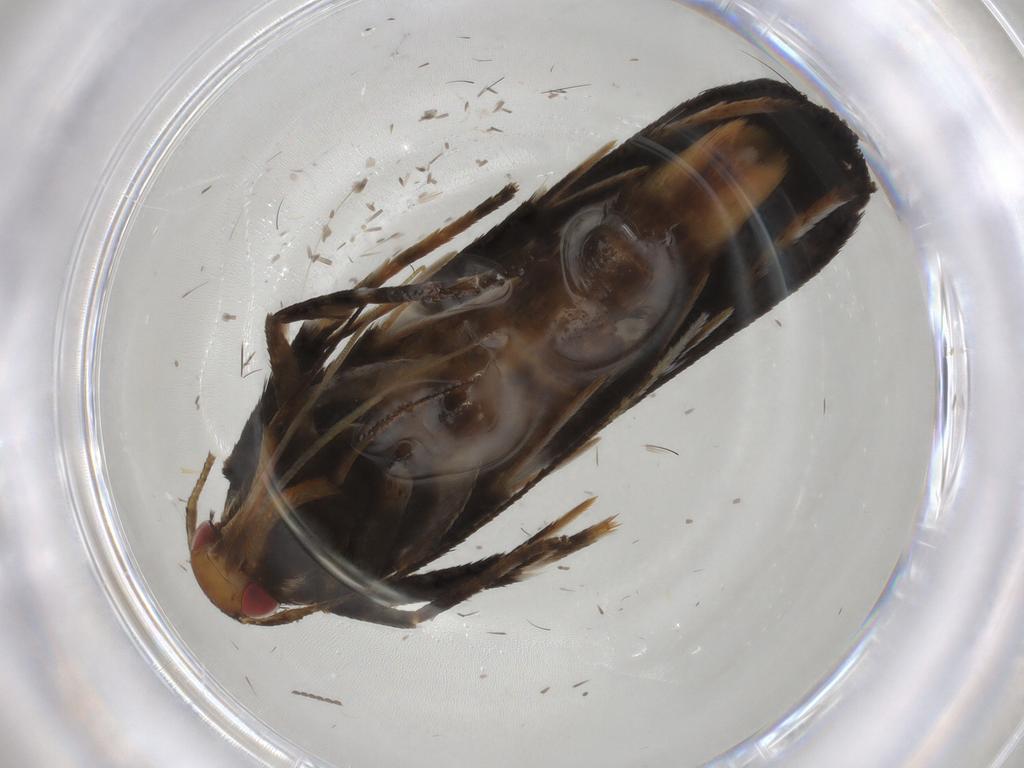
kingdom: Animalia
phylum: Arthropoda
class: Insecta
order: Lepidoptera
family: Gelechiidae
